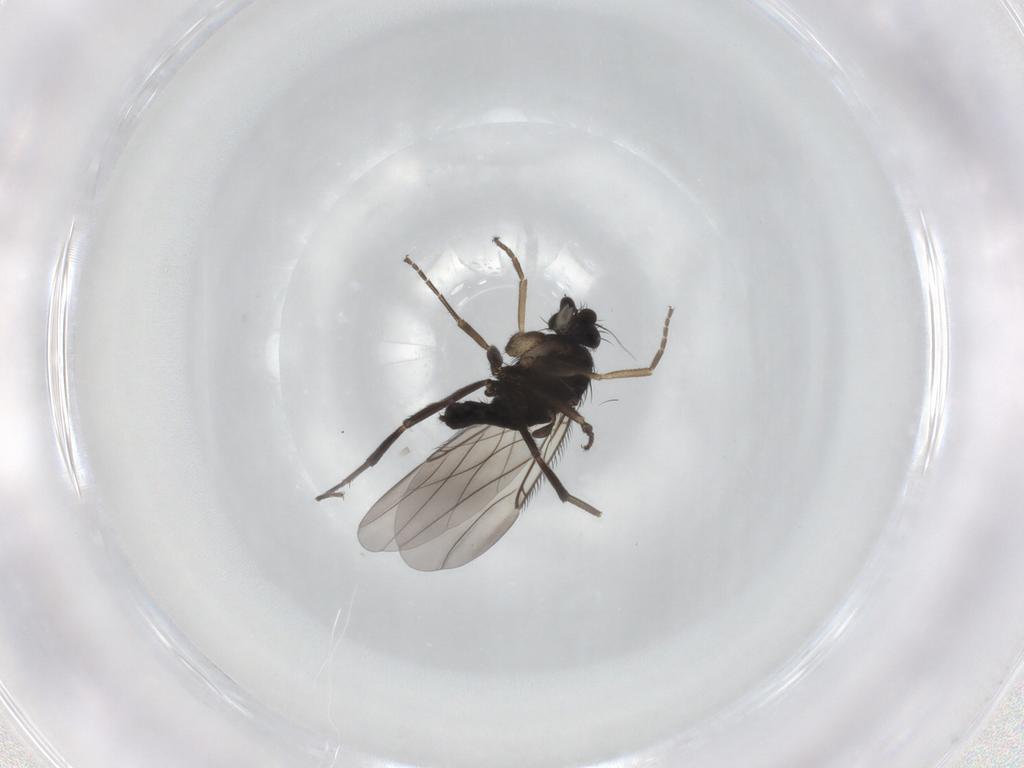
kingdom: Animalia
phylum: Arthropoda
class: Insecta
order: Diptera
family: Phoridae
